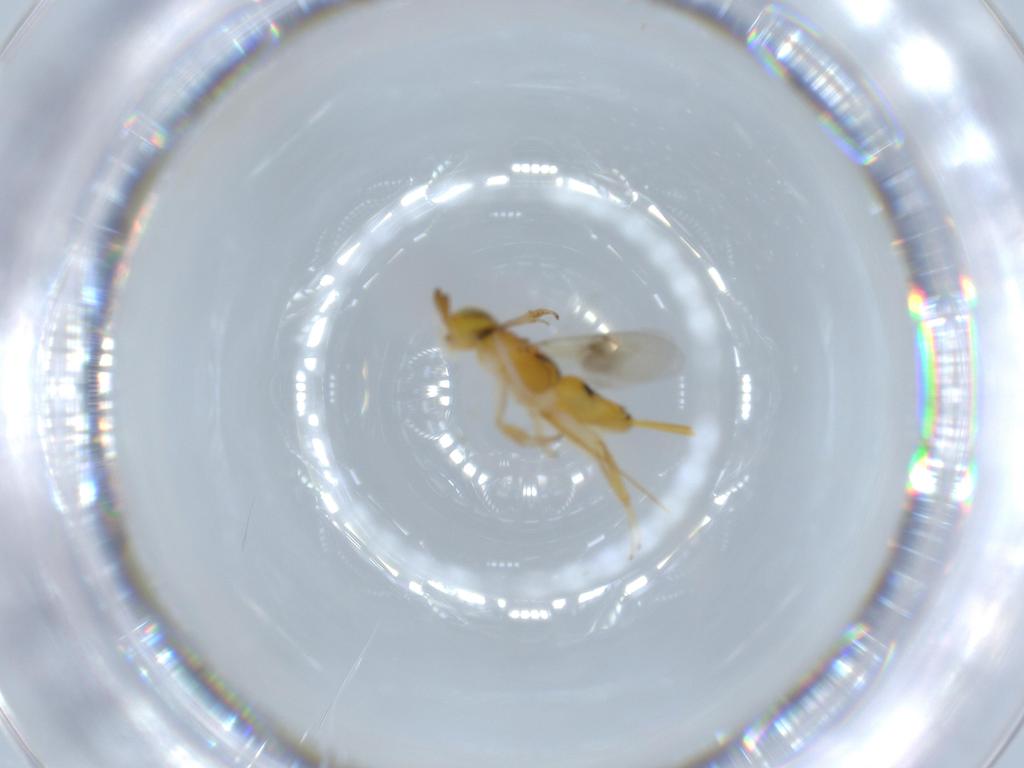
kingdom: Animalia
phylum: Arthropoda
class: Insecta
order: Hymenoptera
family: Encyrtidae
